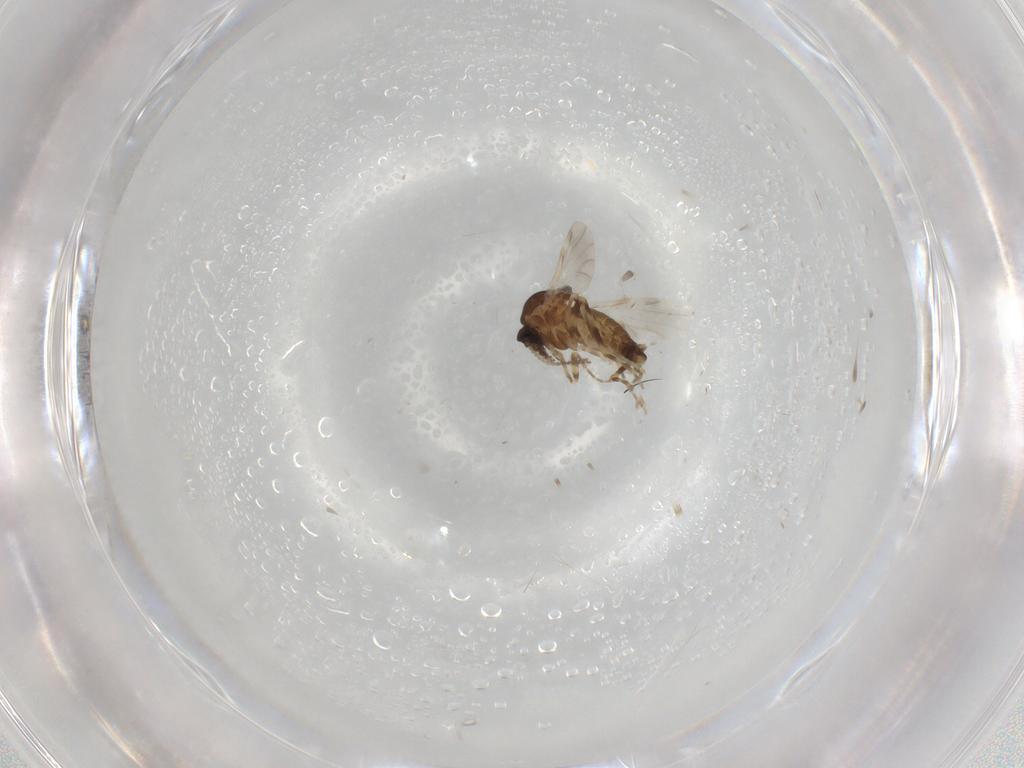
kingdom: Animalia
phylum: Arthropoda
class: Insecta
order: Diptera
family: Ceratopogonidae
